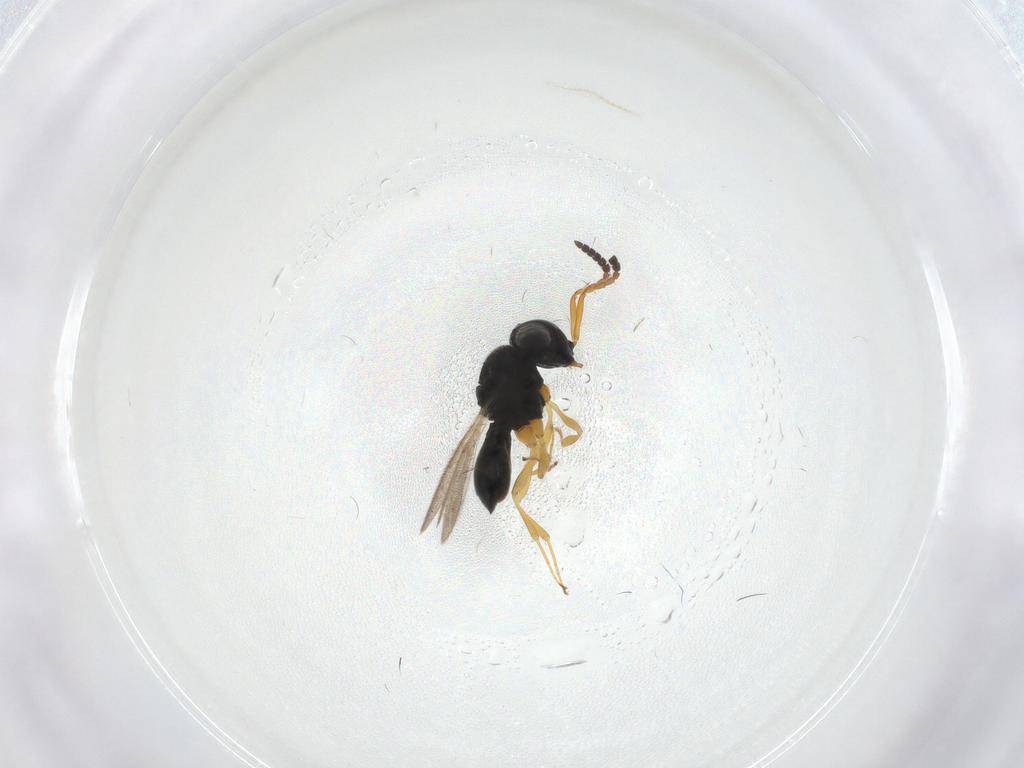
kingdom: Animalia
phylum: Arthropoda
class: Insecta
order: Hymenoptera
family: Scelionidae
